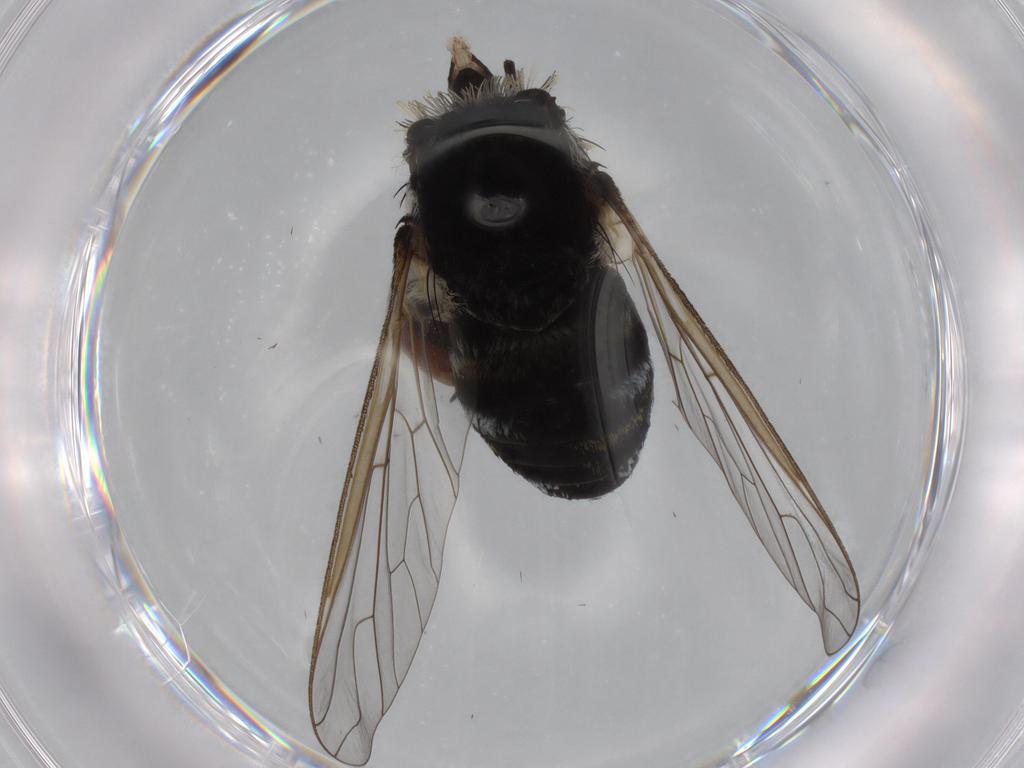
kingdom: Animalia
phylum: Arthropoda
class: Insecta
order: Diptera
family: Bombyliidae
